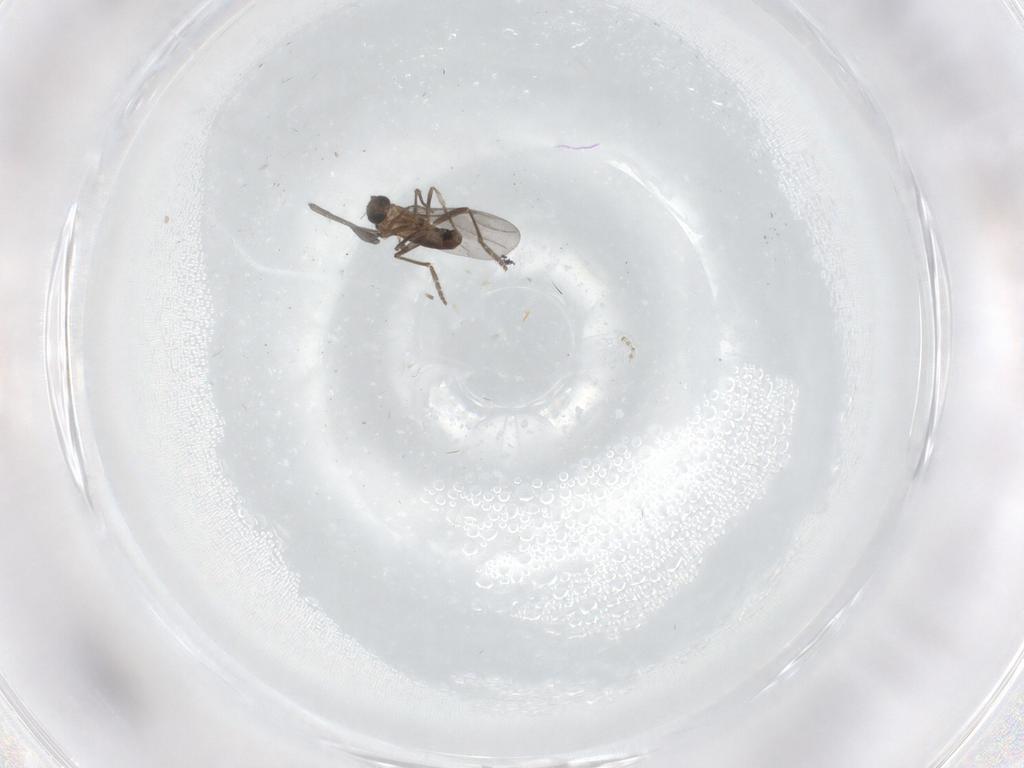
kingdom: Animalia
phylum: Arthropoda
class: Insecta
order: Diptera
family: Phoridae
